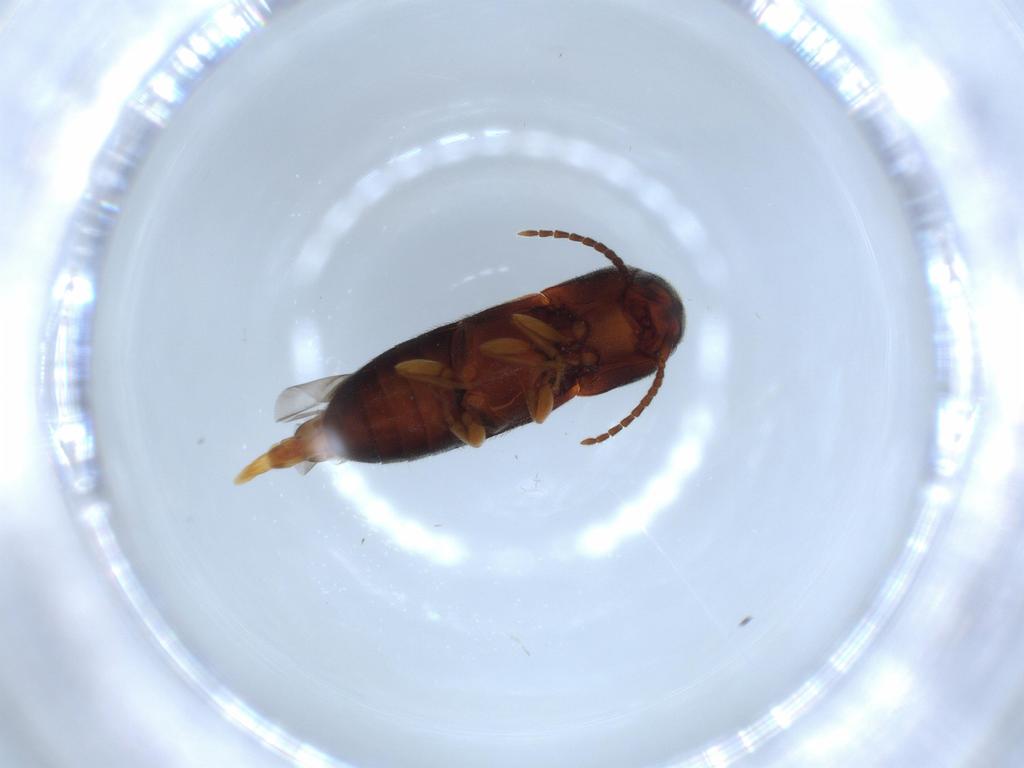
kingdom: Animalia
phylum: Arthropoda
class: Insecta
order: Coleoptera
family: Eucnemidae
